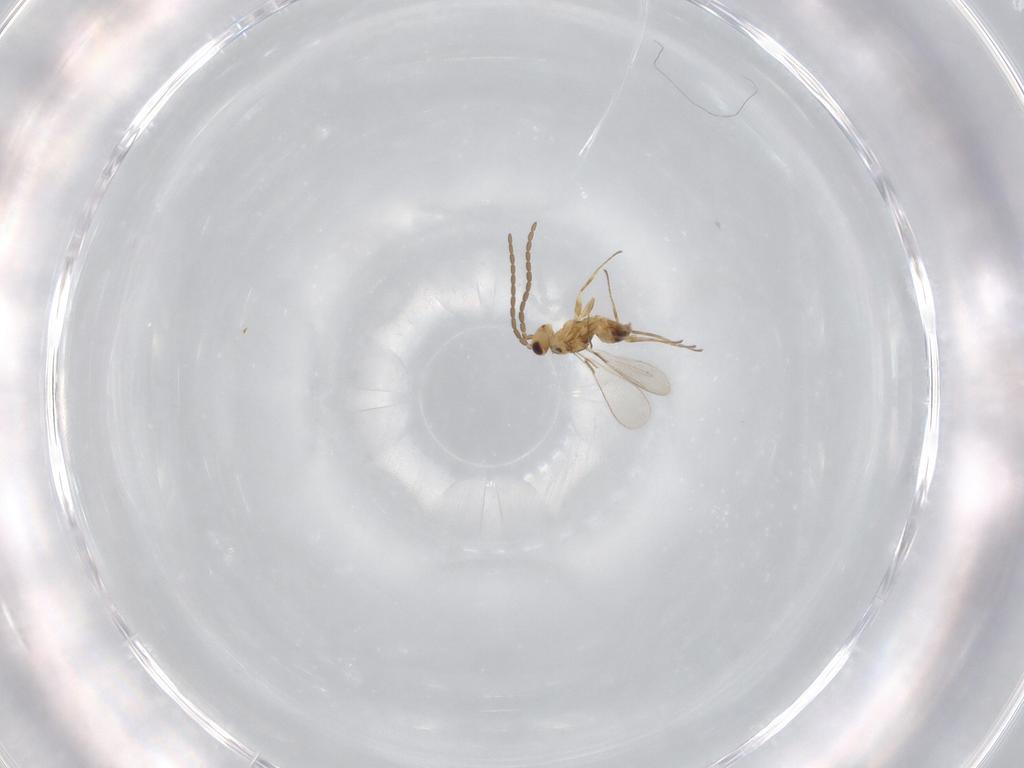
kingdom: Animalia
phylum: Arthropoda
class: Insecta
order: Hymenoptera
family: Mymaridae
